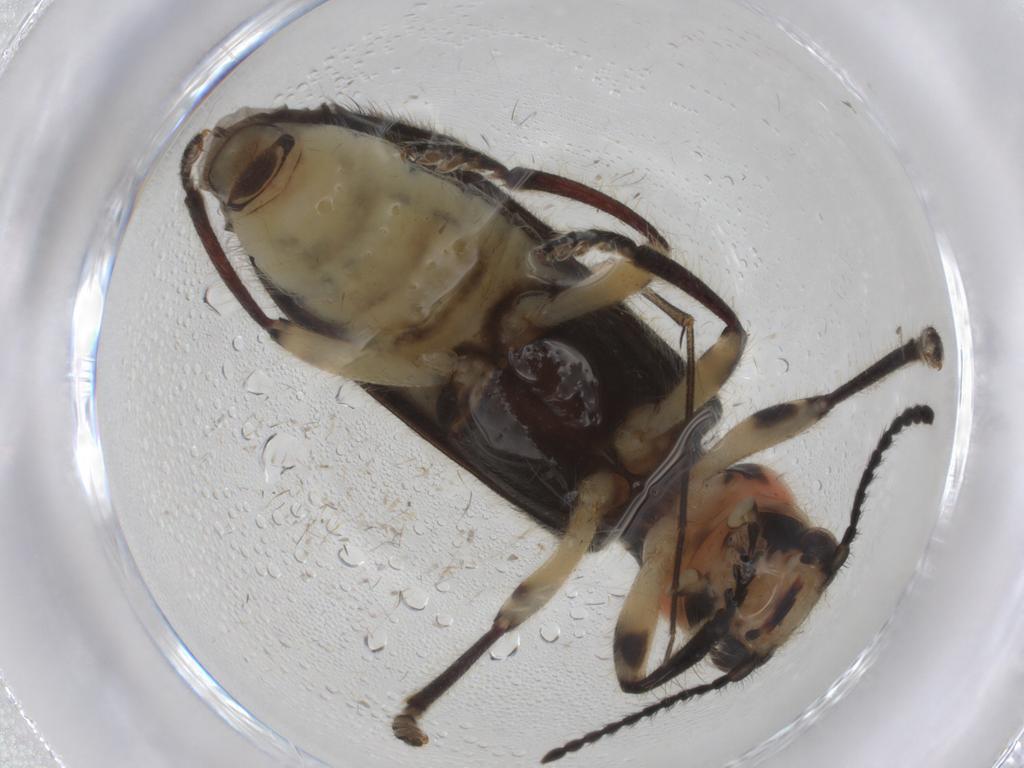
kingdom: Animalia
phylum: Arthropoda
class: Insecta
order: Coleoptera
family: Cleridae
